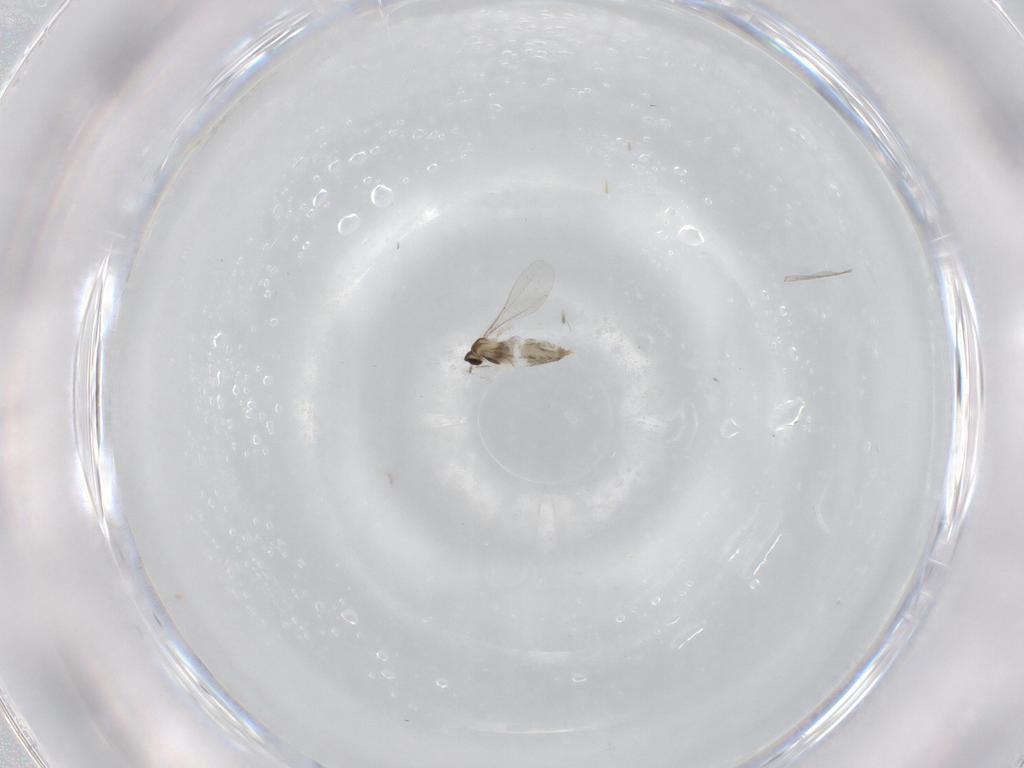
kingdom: Animalia
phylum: Arthropoda
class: Insecta
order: Diptera
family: Cecidomyiidae
